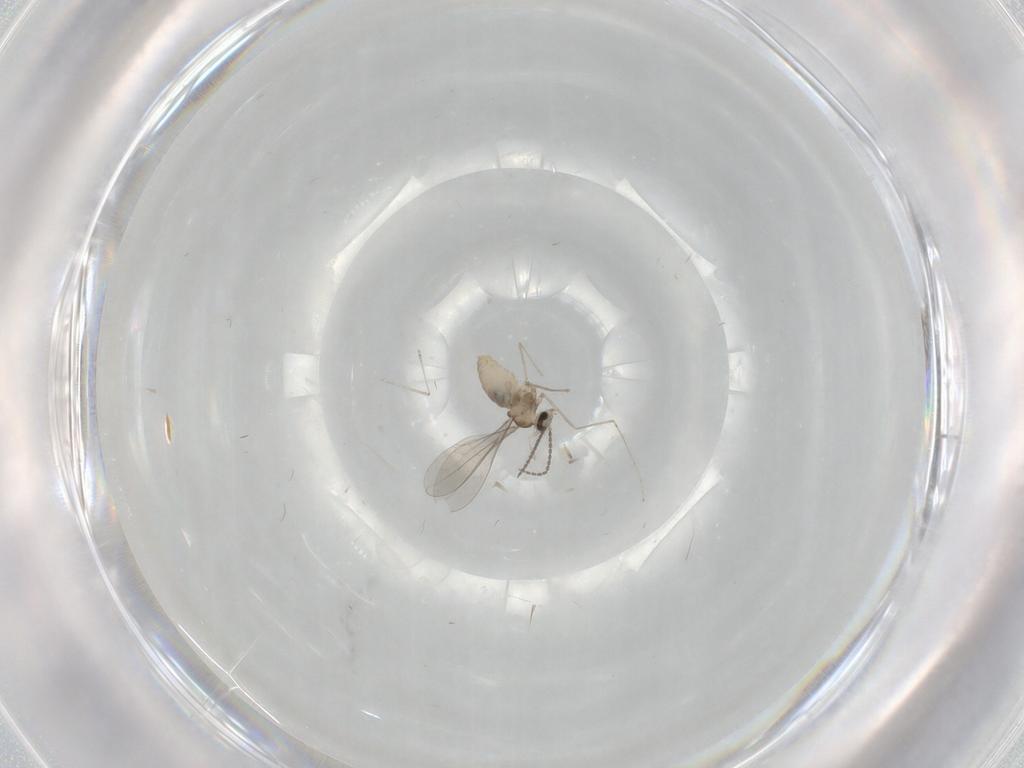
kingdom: Animalia
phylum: Arthropoda
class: Insecta
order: Diptera
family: Cecidomyiidae
